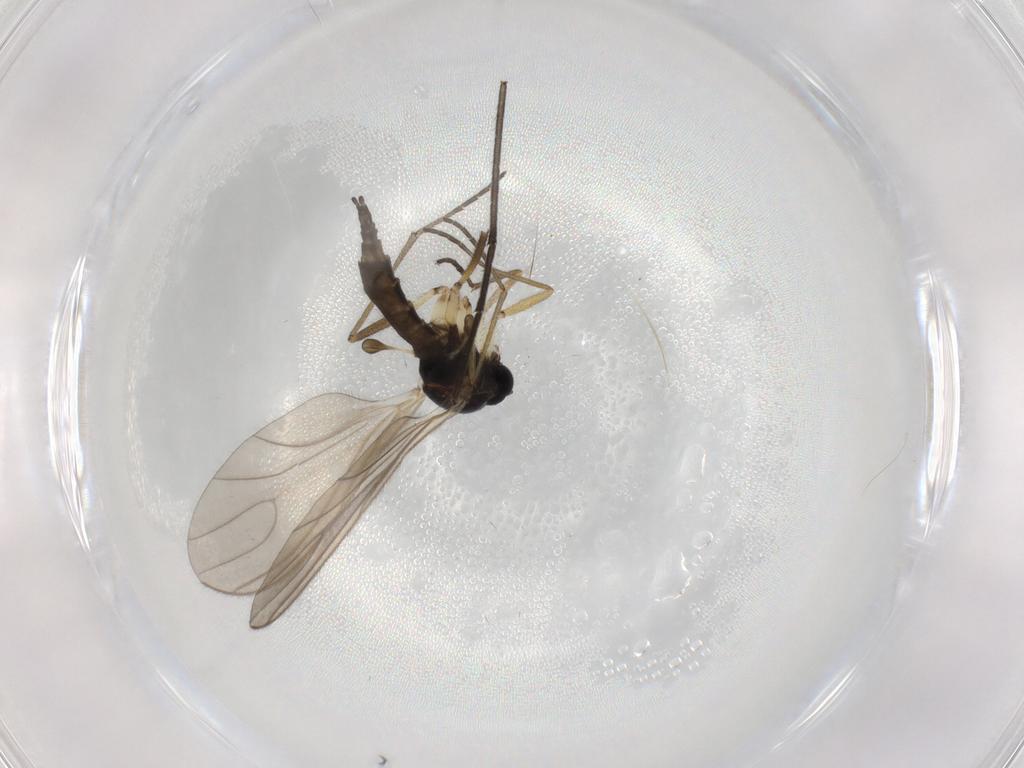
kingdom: Animalia
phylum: Arthropoda
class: Insecta
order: Diptera
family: Sciaridae
